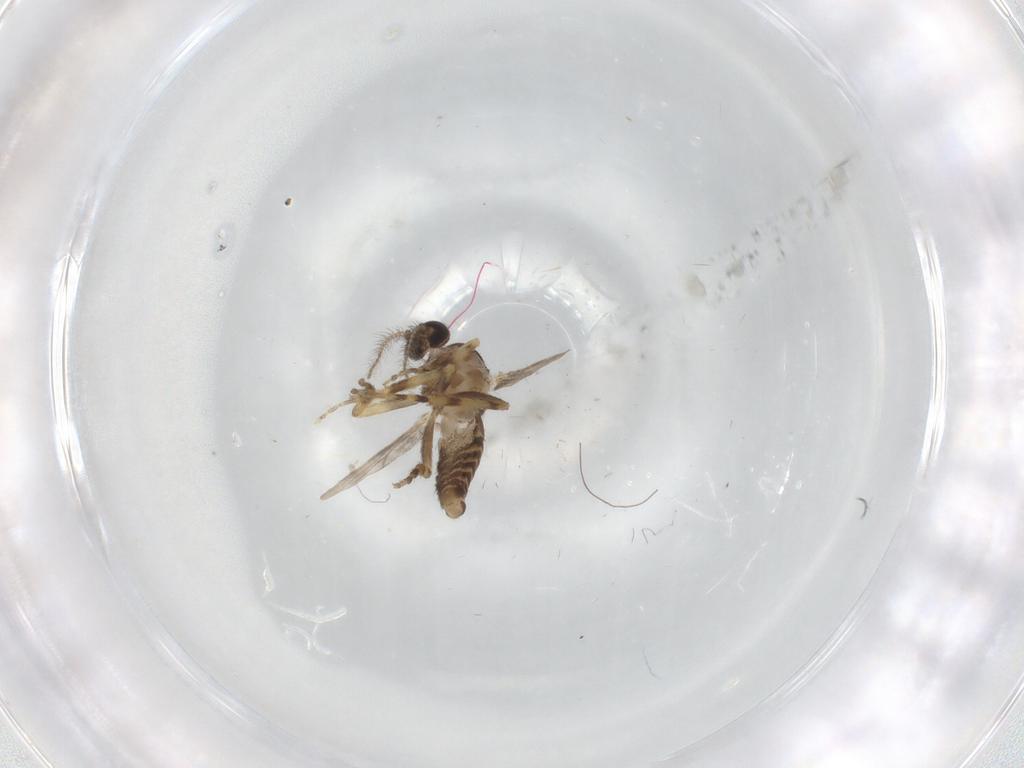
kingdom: Animalia
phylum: Arthropoda
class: Insecta
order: Diptera
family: Ceratopogonidae
